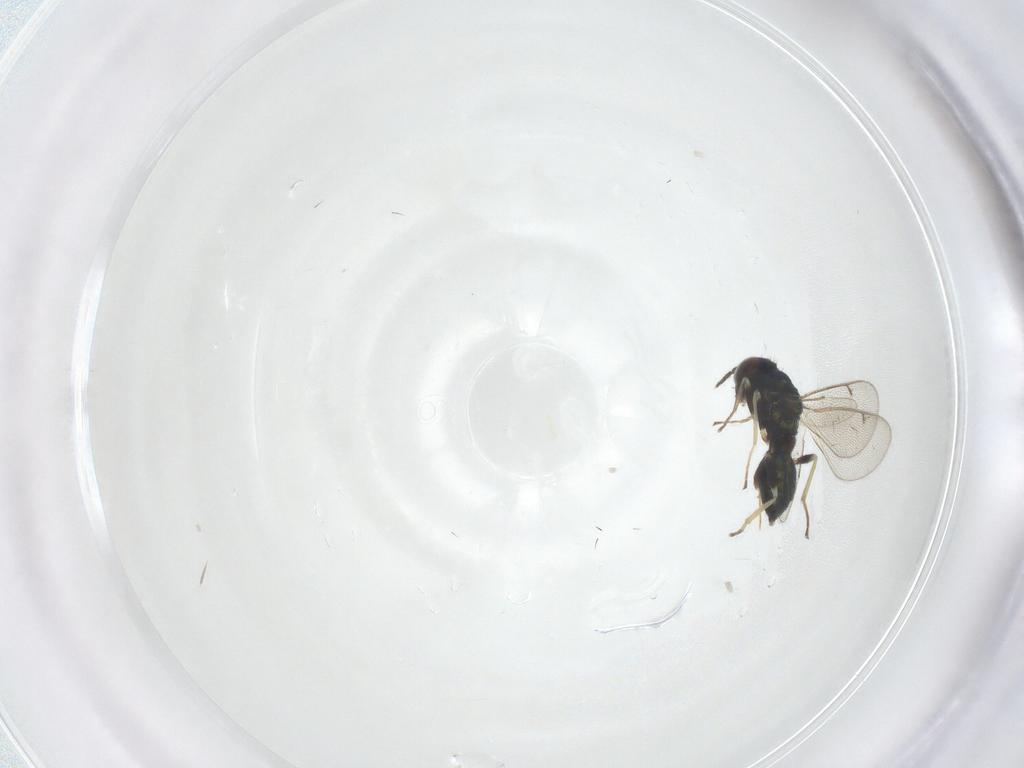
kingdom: Animalia
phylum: Arthropoda
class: Insecta
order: Hymenoptera
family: Eulophidae
